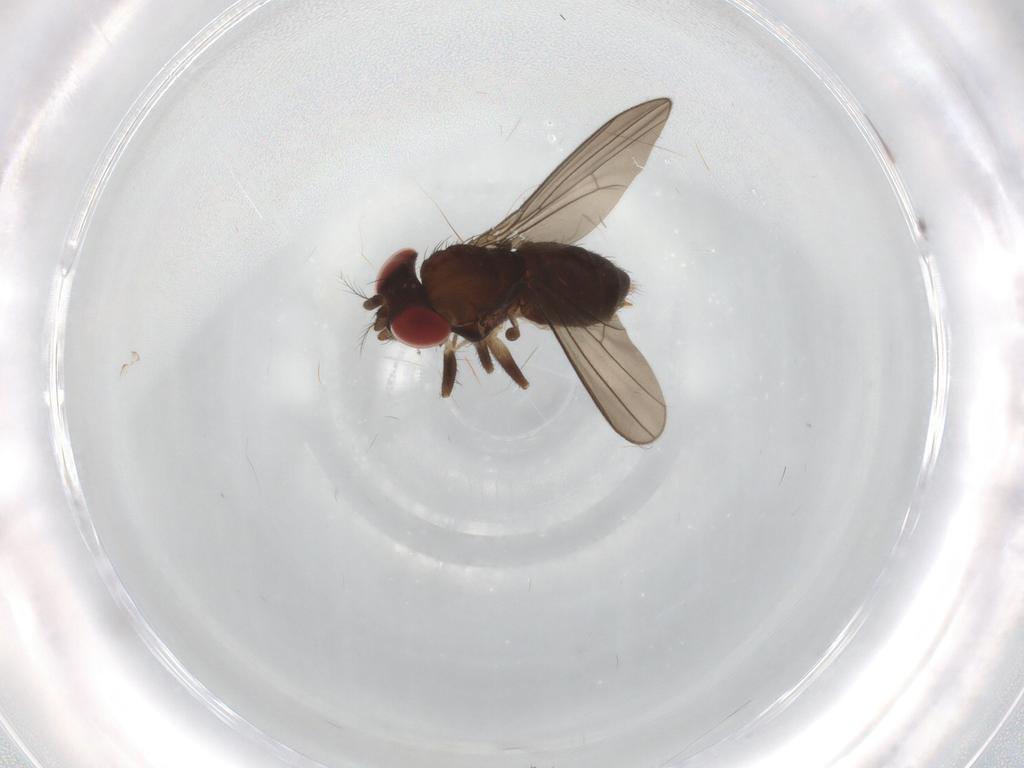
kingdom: Animalia
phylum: Arthropoda
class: Insecta
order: Diptera
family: Drosophilidae
